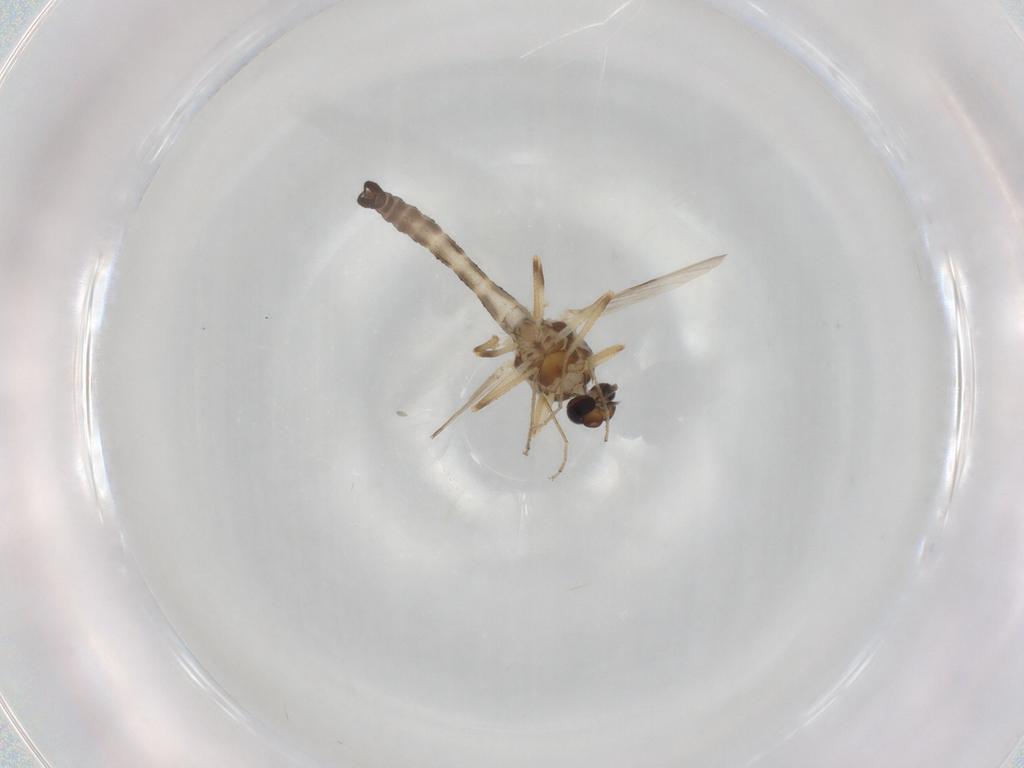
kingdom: Animalia
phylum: Arthropoda
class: Insecta
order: Diptera
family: Ceratopogonidae
